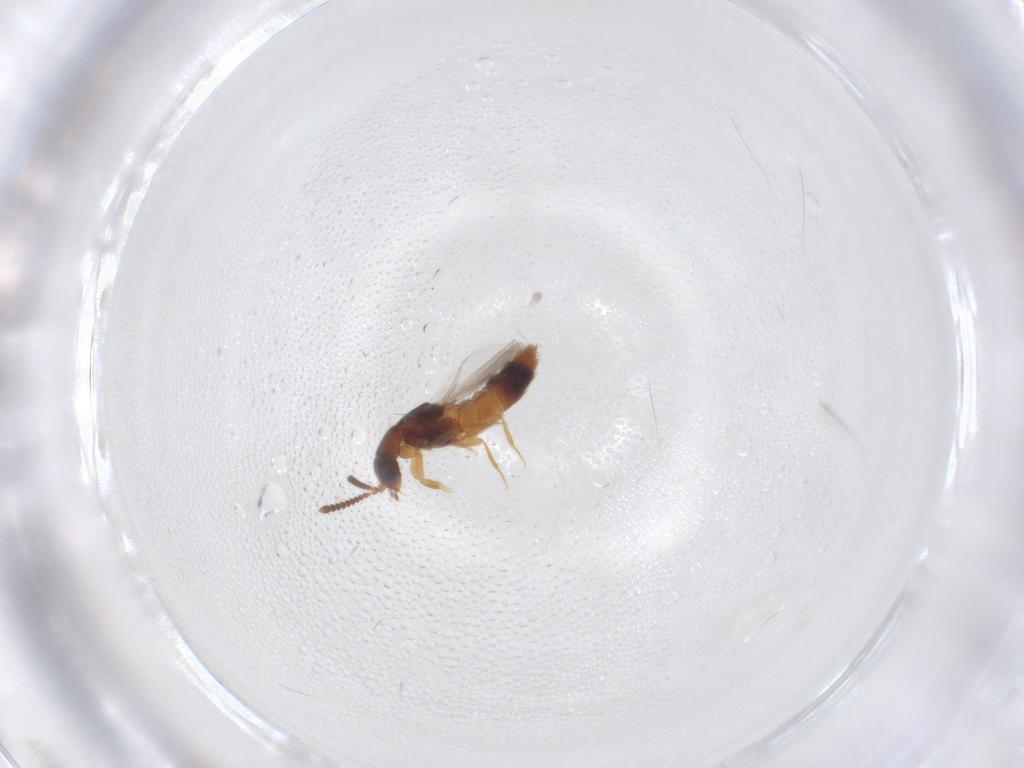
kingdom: Animalia
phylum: Arthropoda
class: Insecta
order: Coleoptera
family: Staphylinidae
